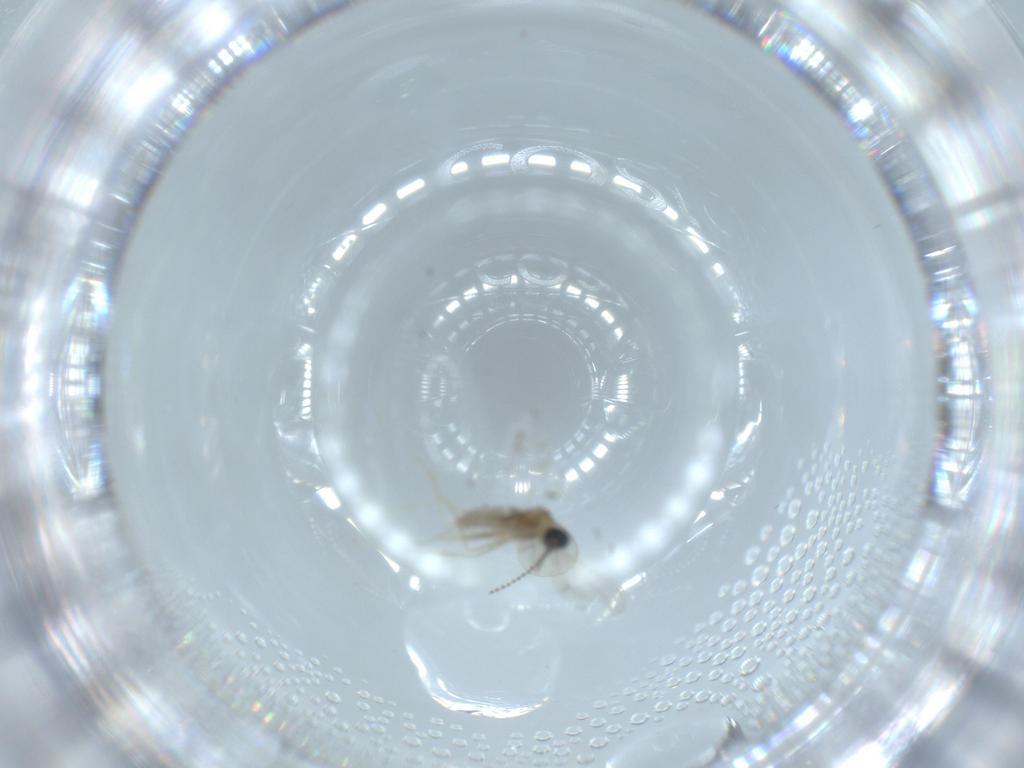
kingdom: Animalia
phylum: Arthropoda
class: Insecta
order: Diptera
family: Cecidomyiidae
